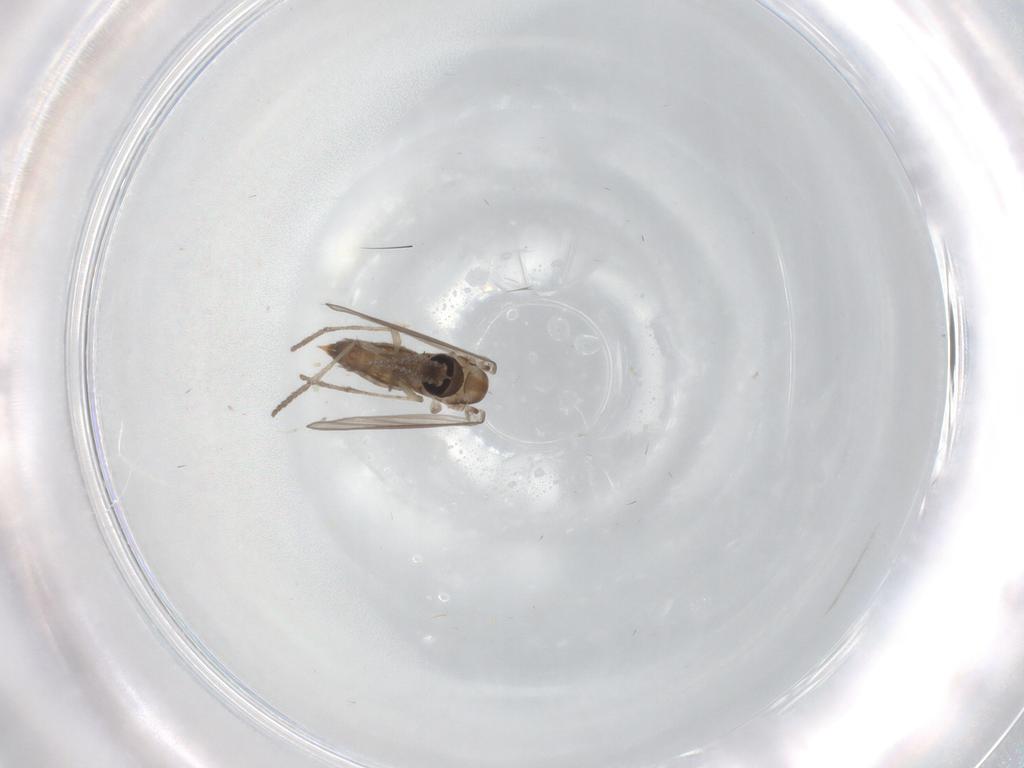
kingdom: Animalia
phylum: Arthropoda
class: Insecta
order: Diptera
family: Psychodidae
